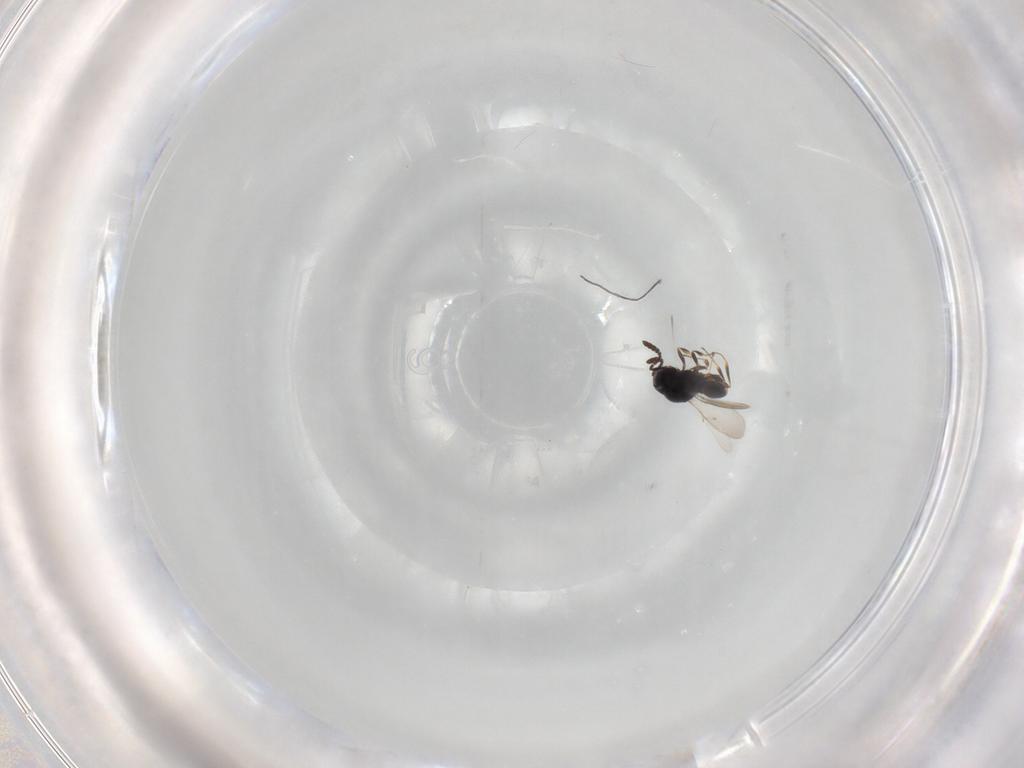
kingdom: Animalia
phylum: Arthropoda
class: Insecta
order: Hymenoptera
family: Scelionidae
